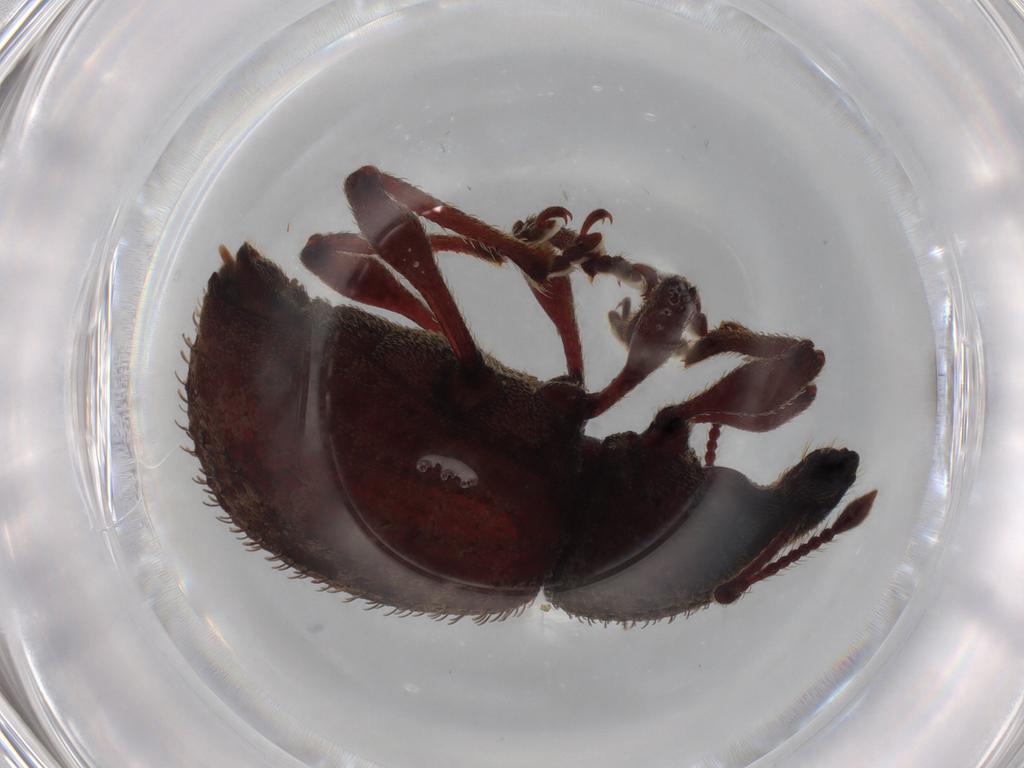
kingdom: Animalia
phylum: Arthropoda
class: Insecta
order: Coleoptera
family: Curculionidae
